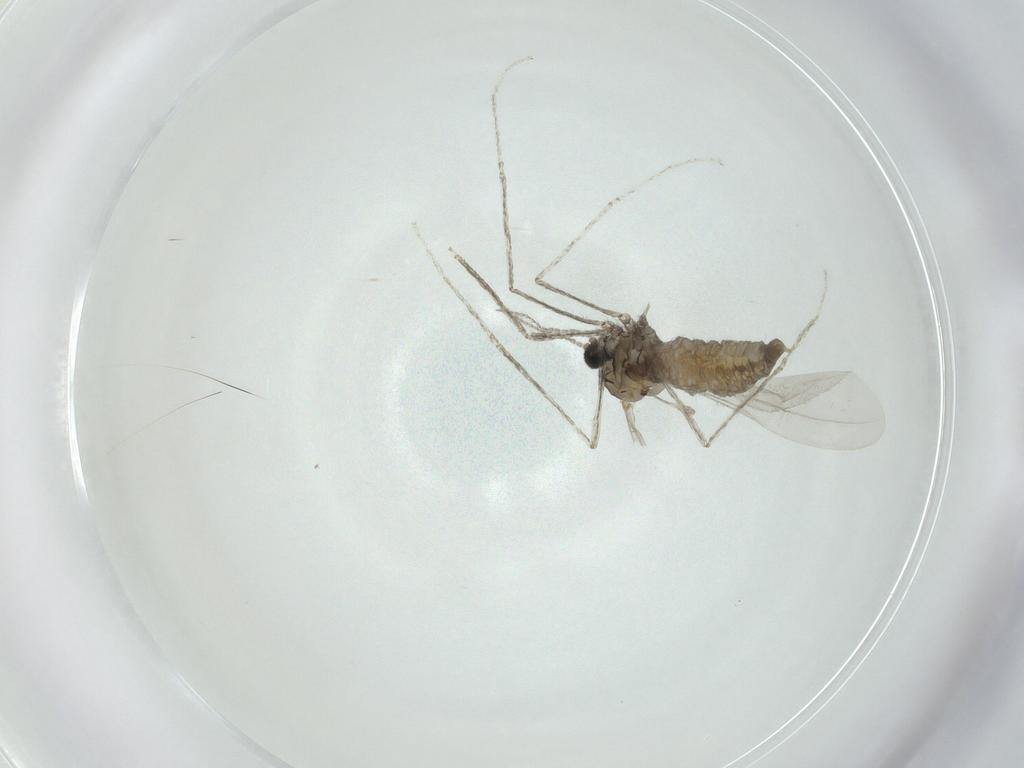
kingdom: Animalia
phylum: Arthropoda
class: Insecta
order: Diptera
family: Cecidomyiidae
